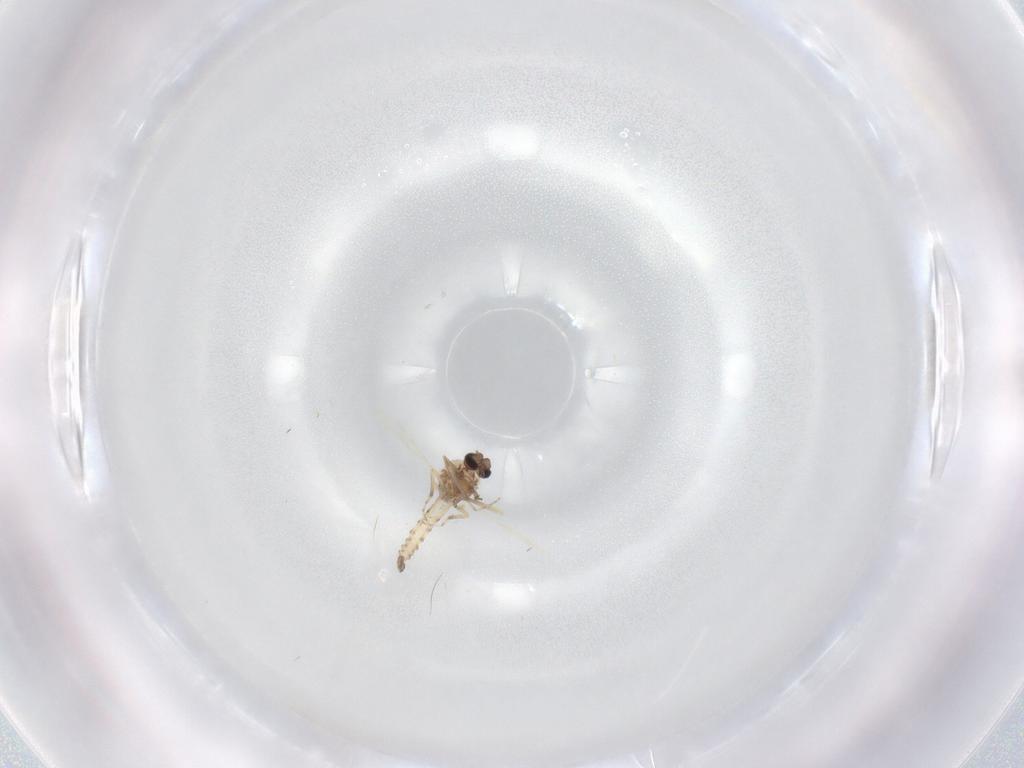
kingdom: Animalia
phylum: Arthropoda
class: Insecta
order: Diptera
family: Ceratopogonidae
